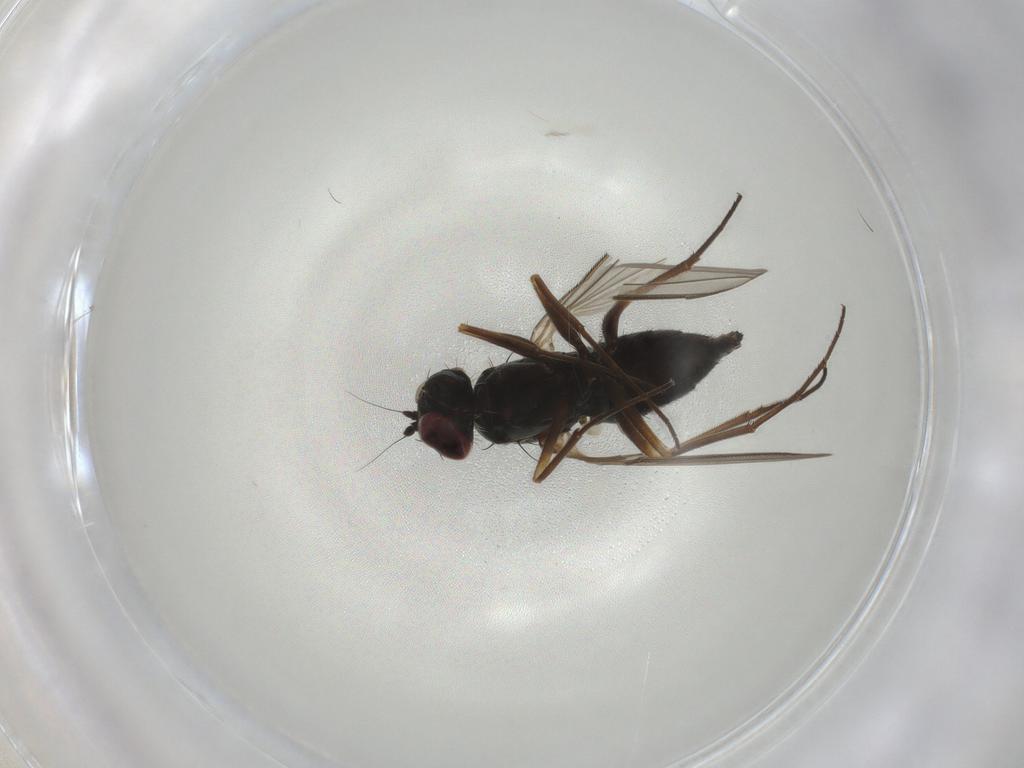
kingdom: Animalia
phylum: Arthropoda
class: Insecta
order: Diptera
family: Dolichopodidae
